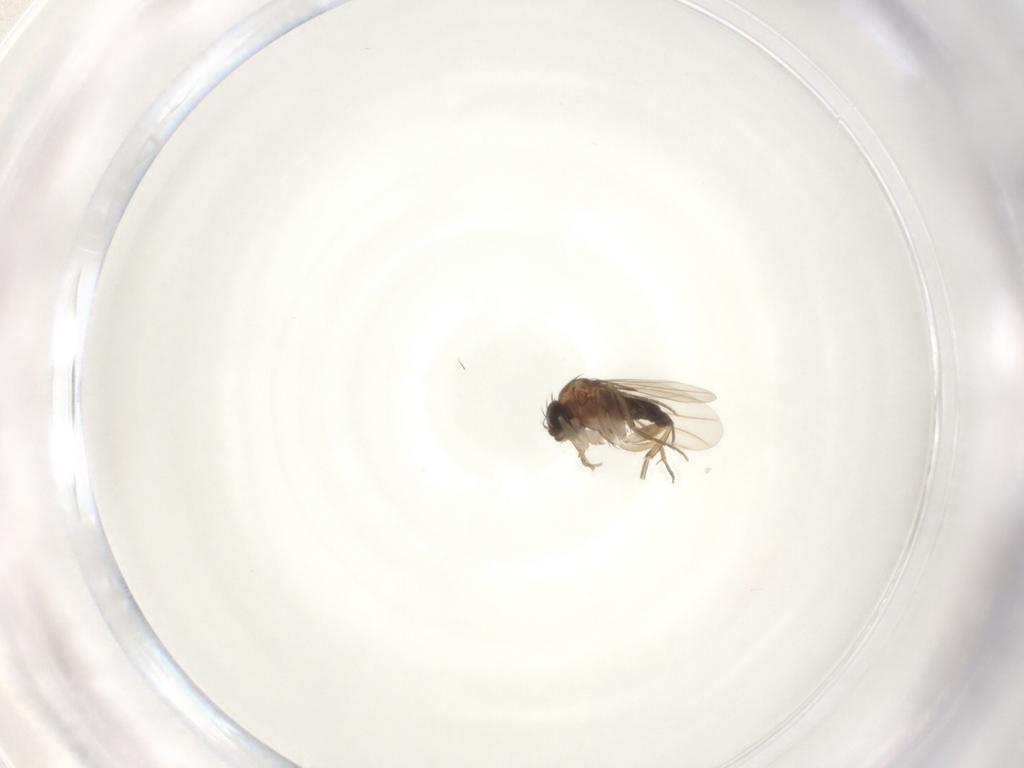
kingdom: Animalia
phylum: Arthropoda
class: Insecta
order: Diptera
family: Phoridae
